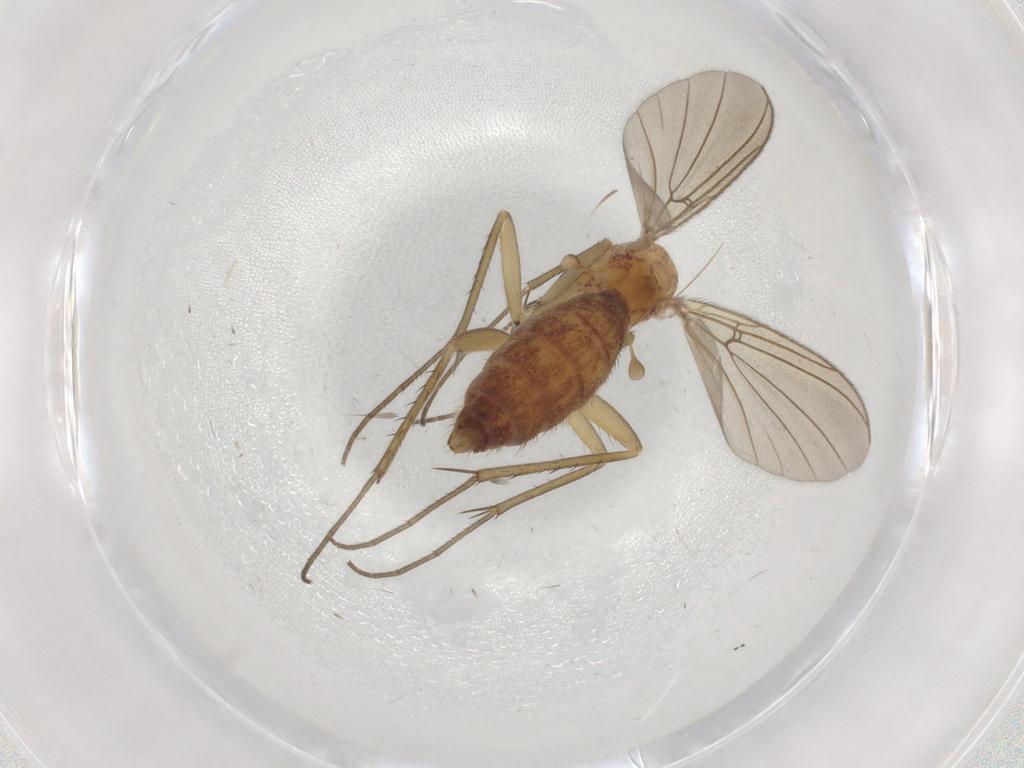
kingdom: Animalia
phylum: Arthropoda
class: Insecta
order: Diptera
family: Mycetophilidae
